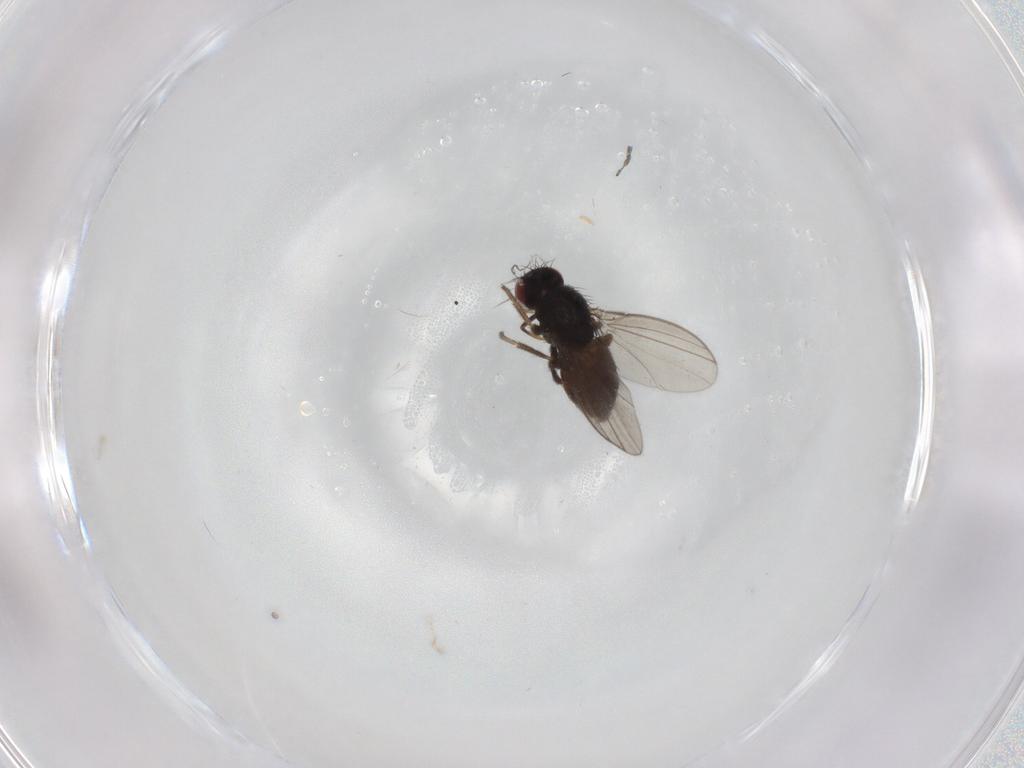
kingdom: Animalia
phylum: Arthropoda
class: Insecta
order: Diptera
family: Milichiidae
